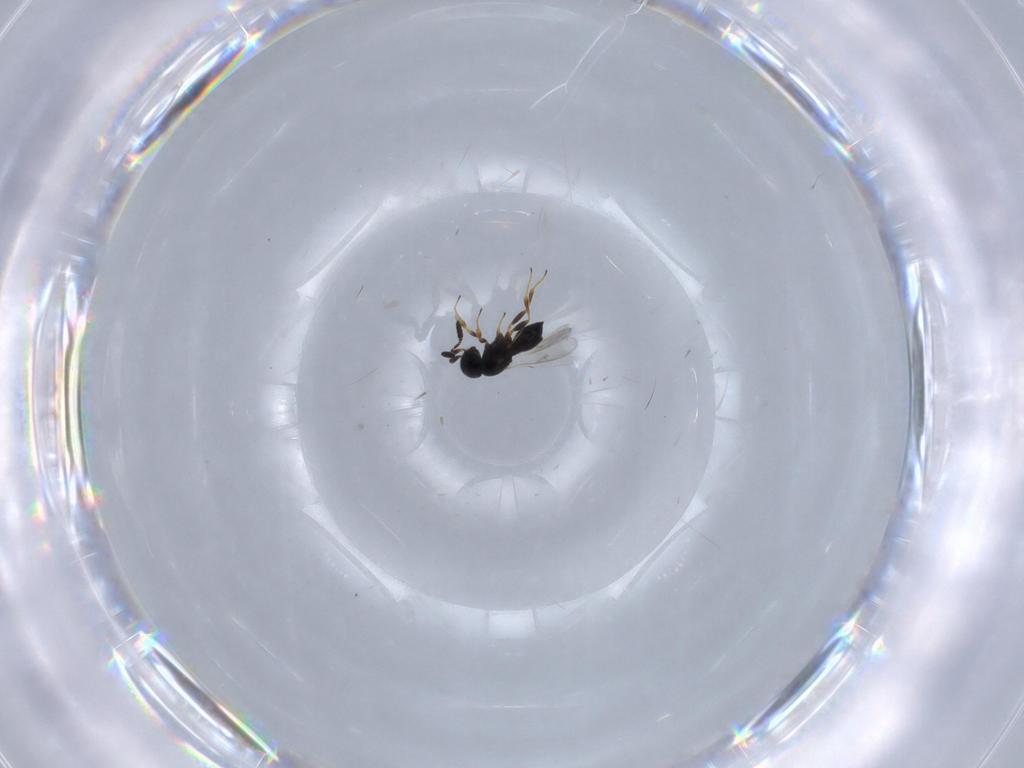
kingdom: Animalia
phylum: Arthropoda
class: Insecta
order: Hymenoptera
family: Scelionidae
